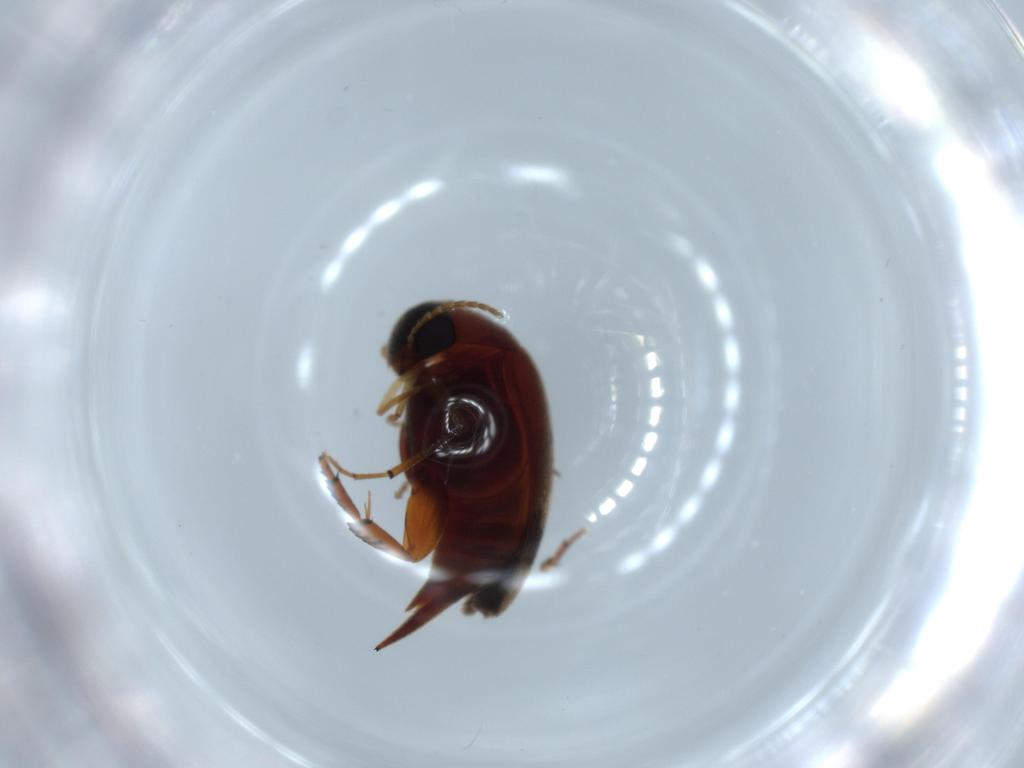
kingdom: Animalia
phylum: Arthropoda
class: Insecta
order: Coleoptera
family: Mordellidae
